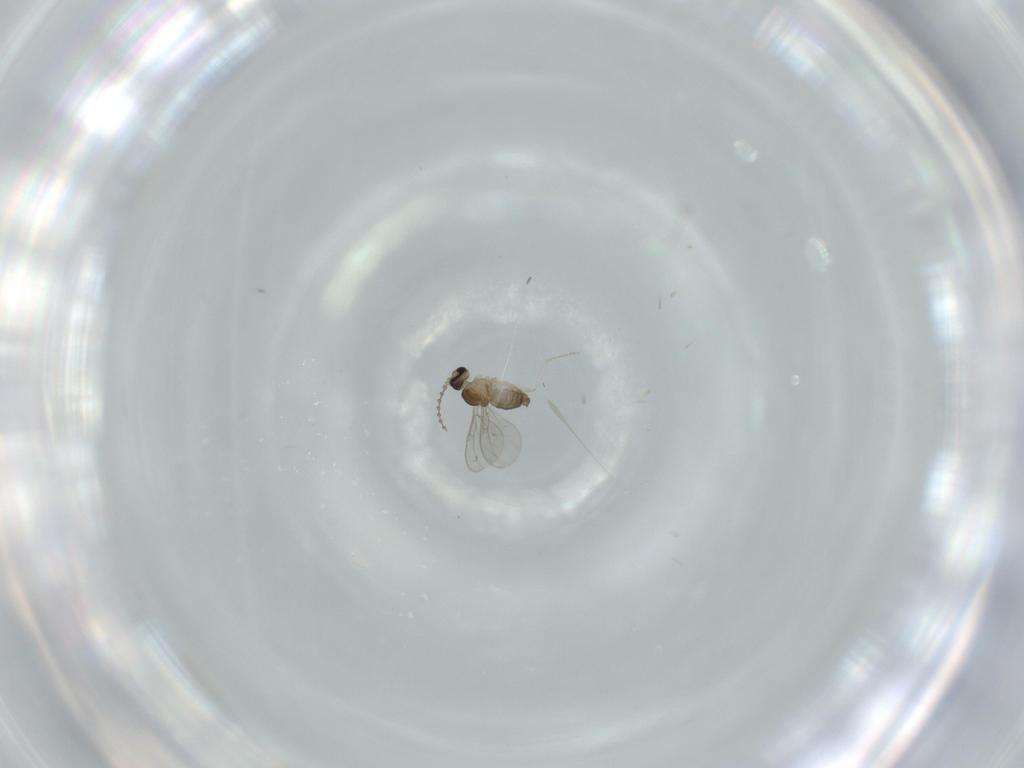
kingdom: Animalia
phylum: Arthropoda
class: Insecta
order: Diptera
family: Cecidomyiidae
